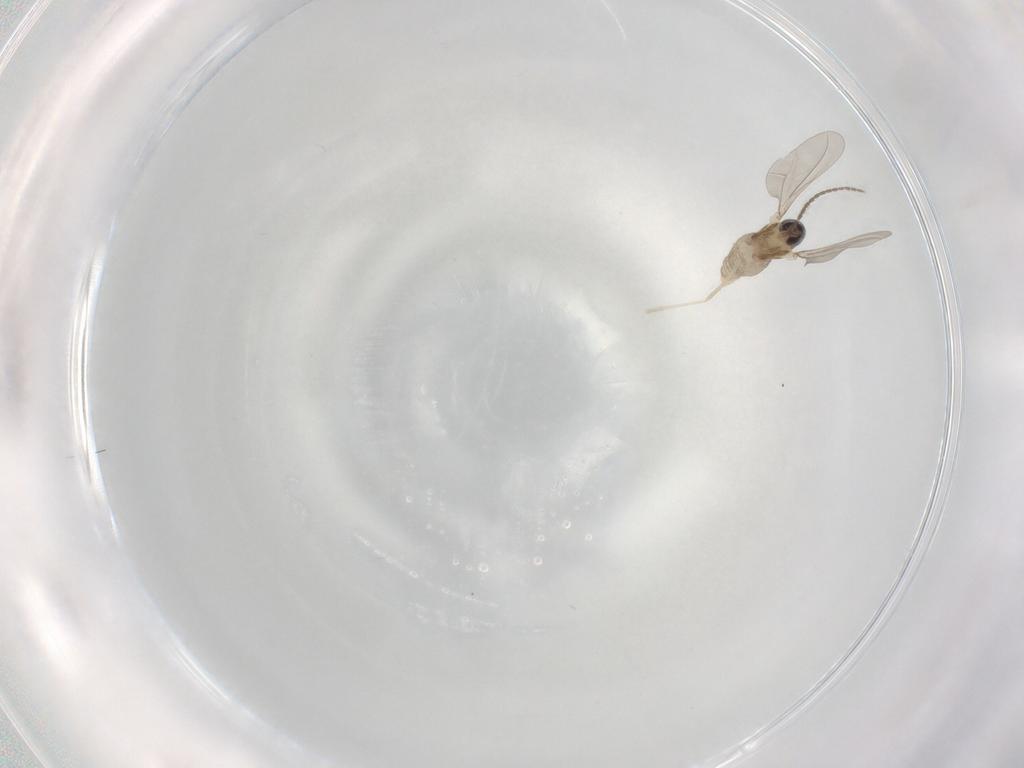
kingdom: Animalia
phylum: Arthropoda
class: Insecta
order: Diptera
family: Cecidomyiidae
